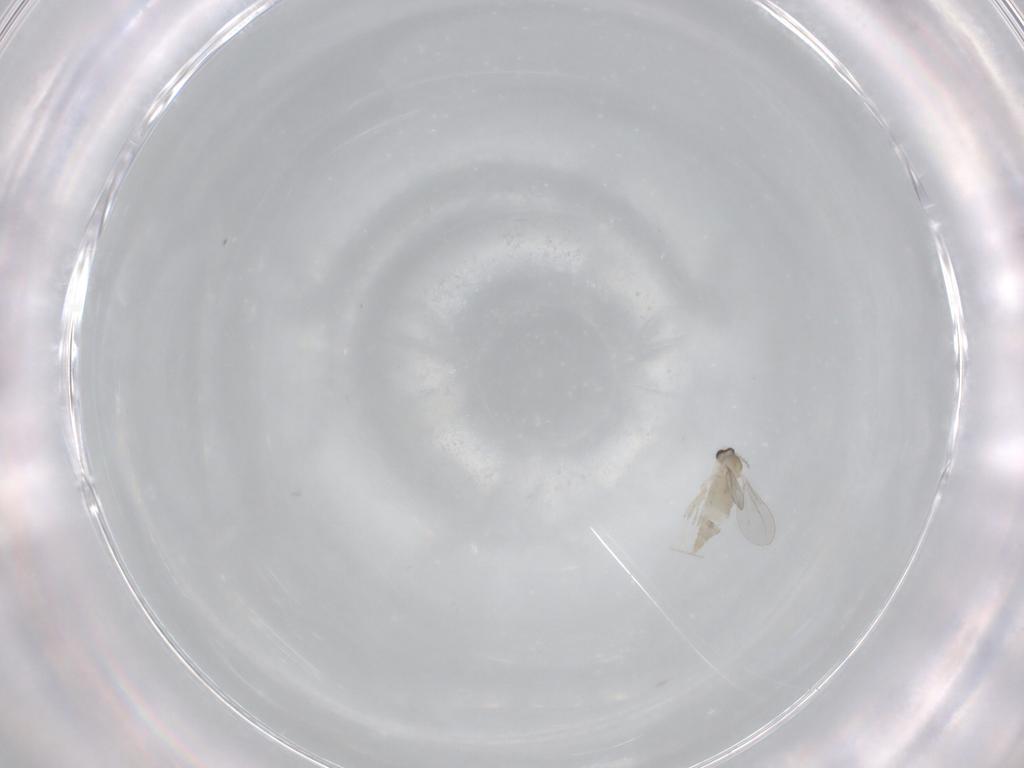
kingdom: Animalia
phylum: Arthropoda
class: Insecta
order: Diptera
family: Cecidomyiidae
